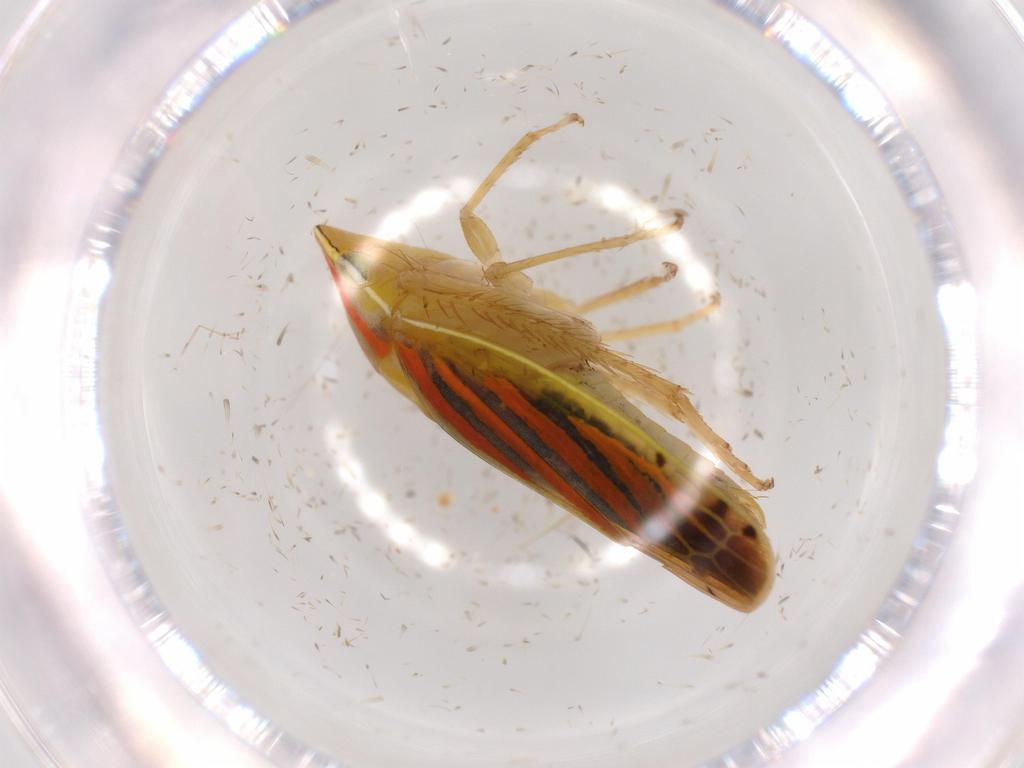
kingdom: Animalia
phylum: Arthropoda
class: Insecta
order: Hemiptera
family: Cicadellidae
